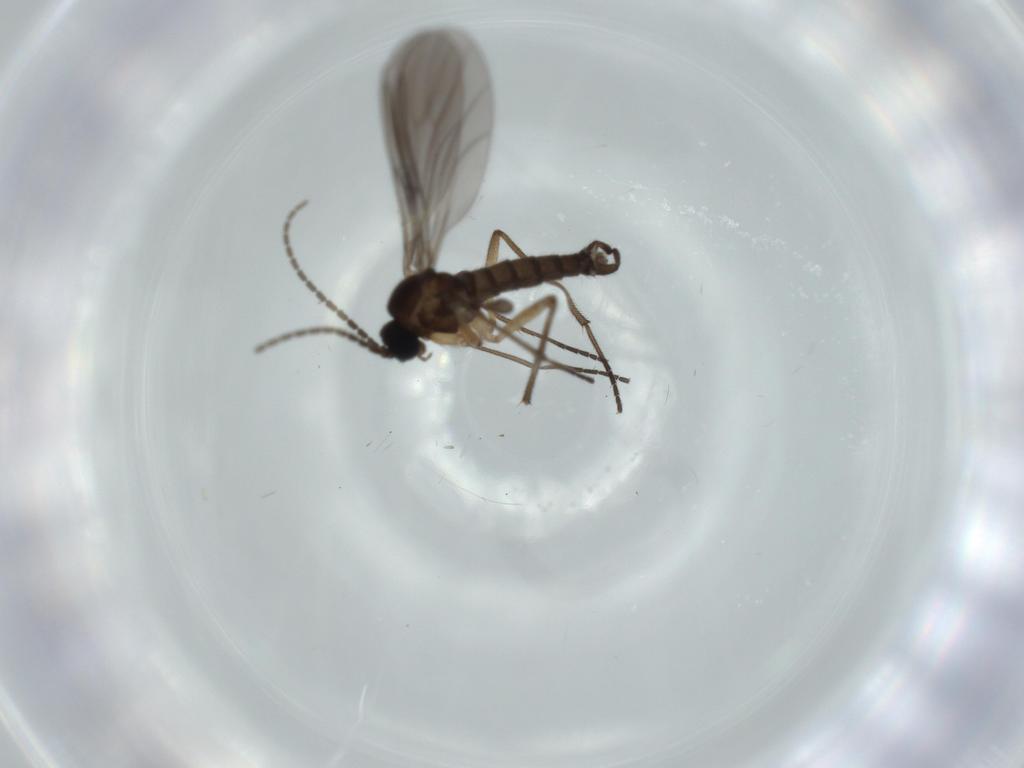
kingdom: Animalia
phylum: Arthropoda
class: Insecta
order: Diptera
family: Sciaridae
